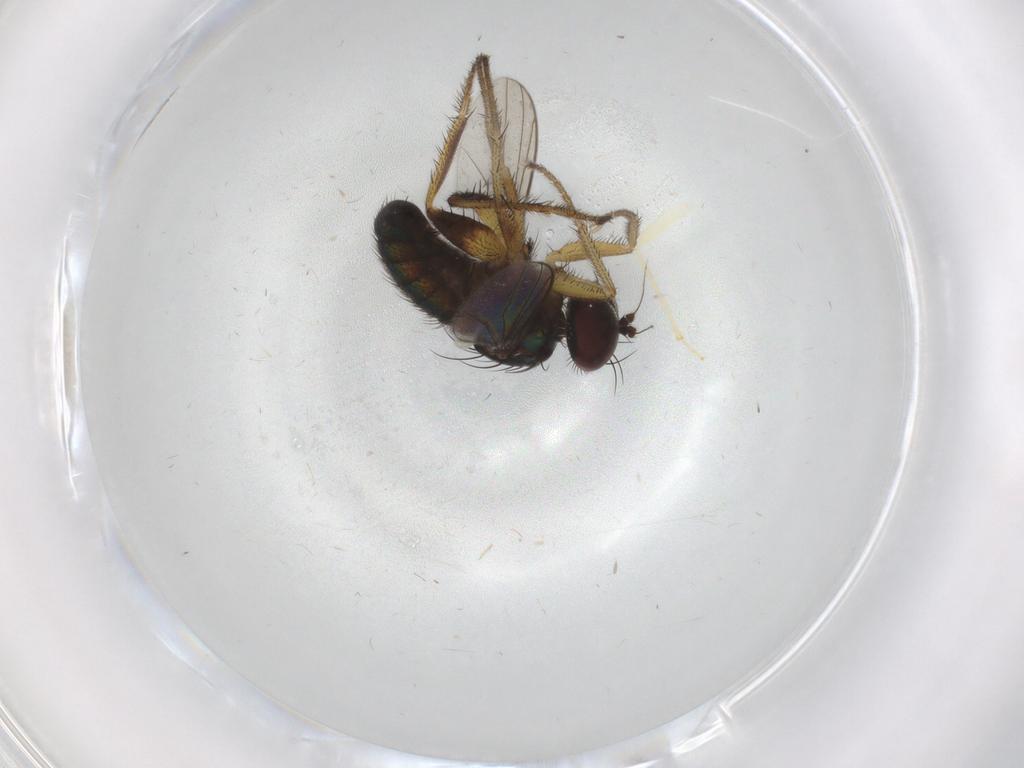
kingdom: Animalia
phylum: Arthropoda
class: Insecta
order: Diptera
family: Dolichopodidae
